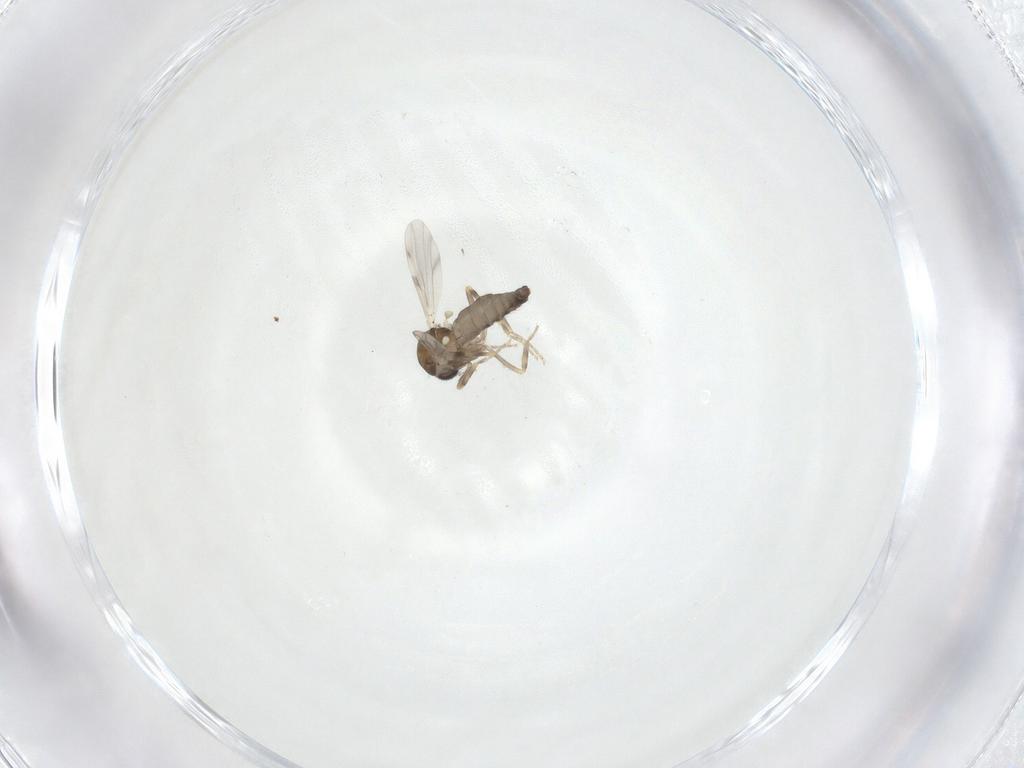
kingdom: Animalia
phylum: Arthropoda
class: Insecta
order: Diptera
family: Ceratopogonidae
